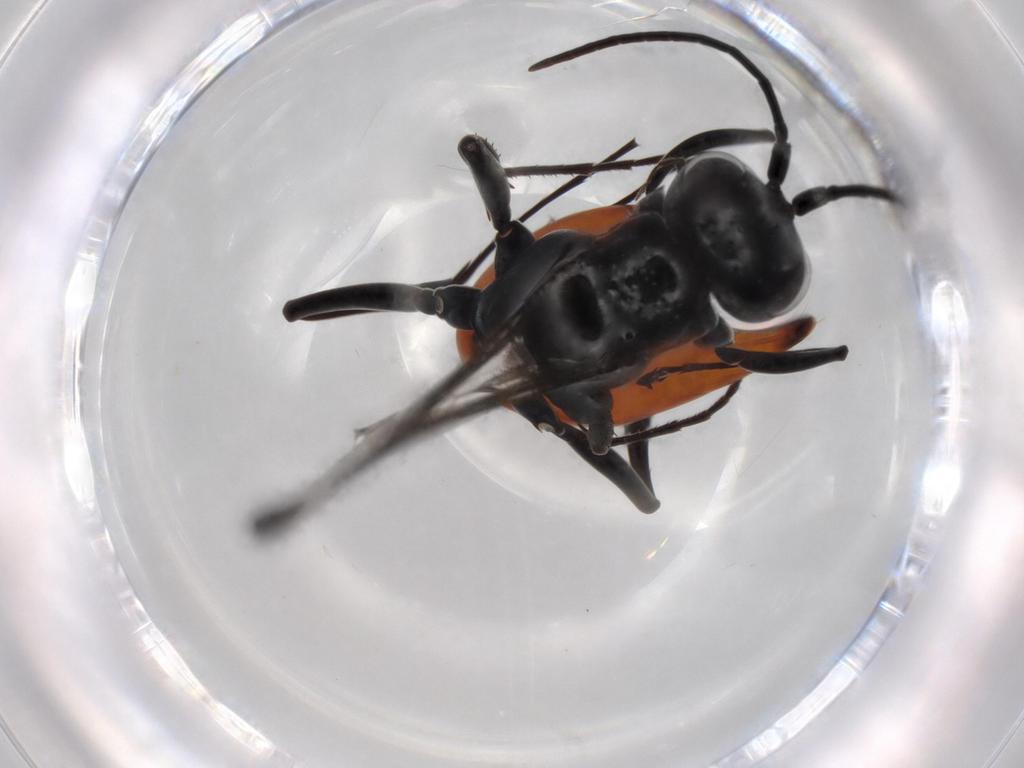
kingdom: Animalia
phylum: Arthropoda
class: Insecta
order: Hymenoptera
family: Pompilidae
